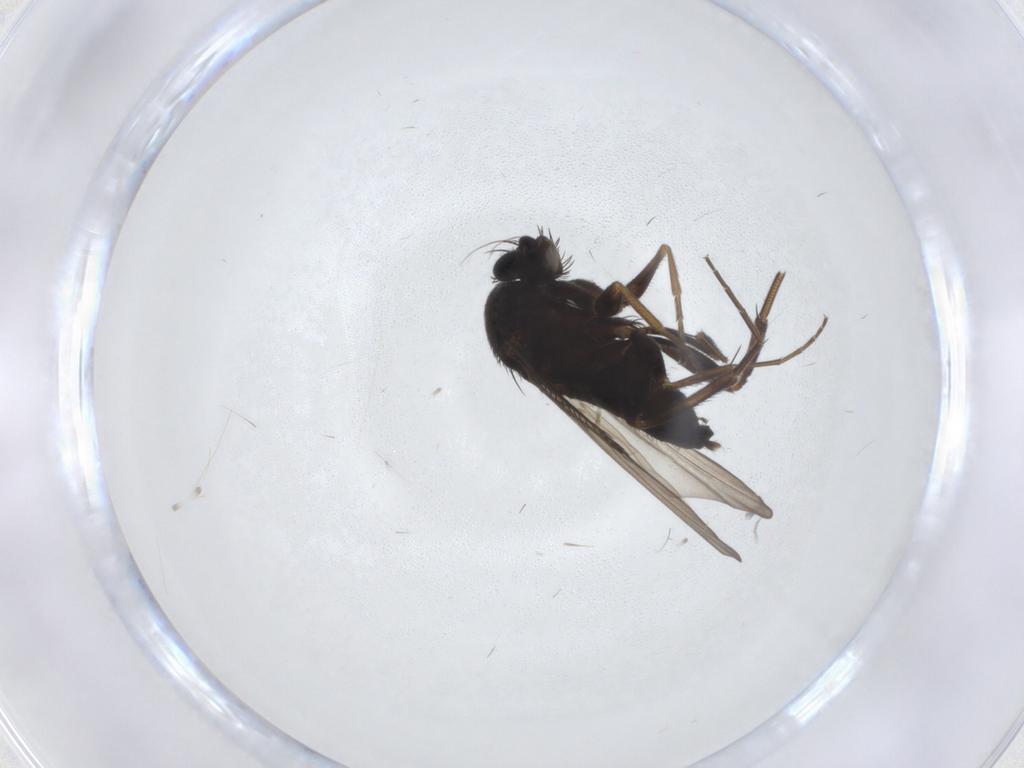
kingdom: Animalia
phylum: Arthropoda
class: Insecta
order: Diptera
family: Phoridae
